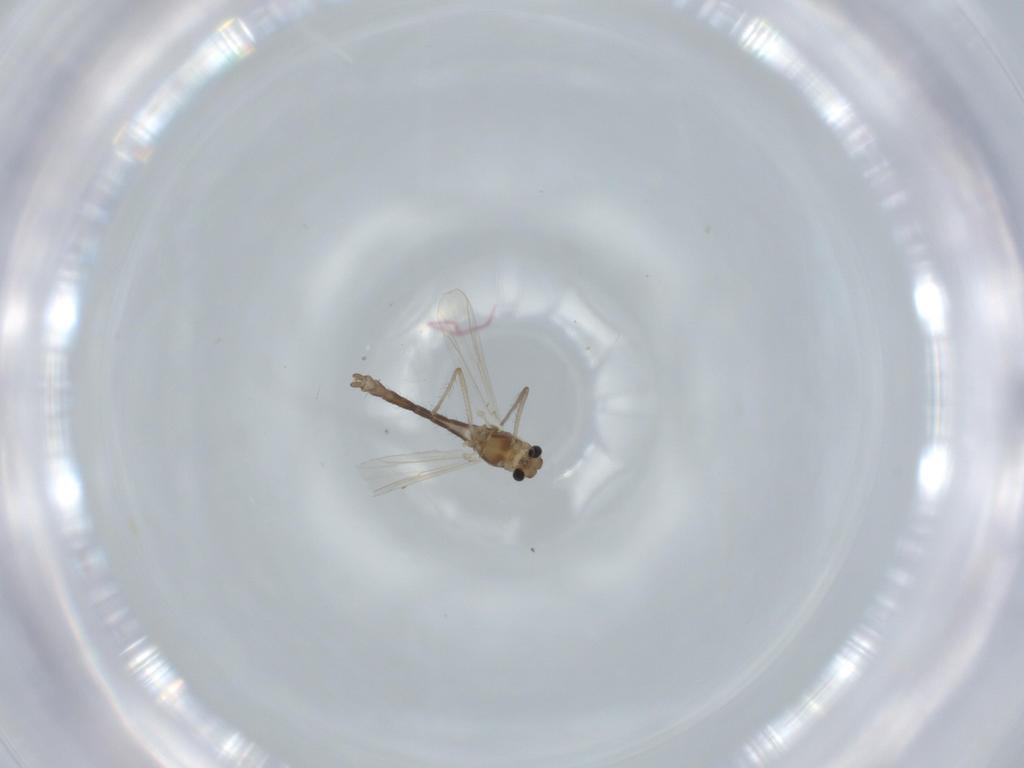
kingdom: Animalia
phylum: Arthropoda
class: Insecta
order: Diptera
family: Chironomidae
